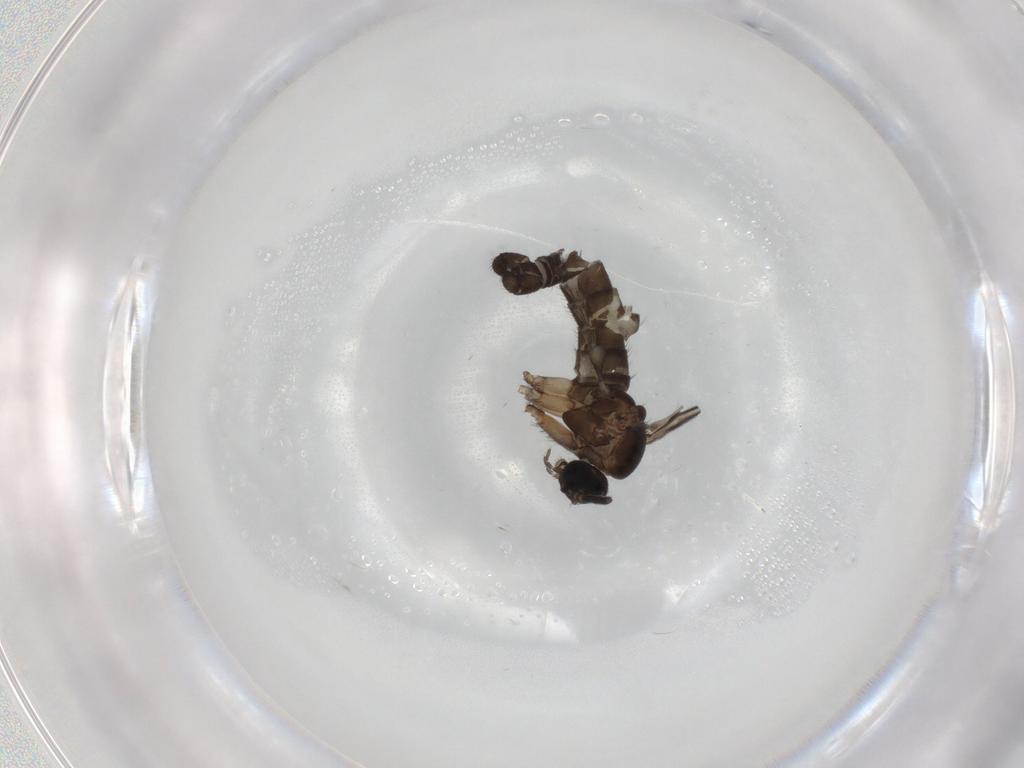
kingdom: Animalia
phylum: Arthropoda
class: Insecta
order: Diptera
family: Sciaridae
